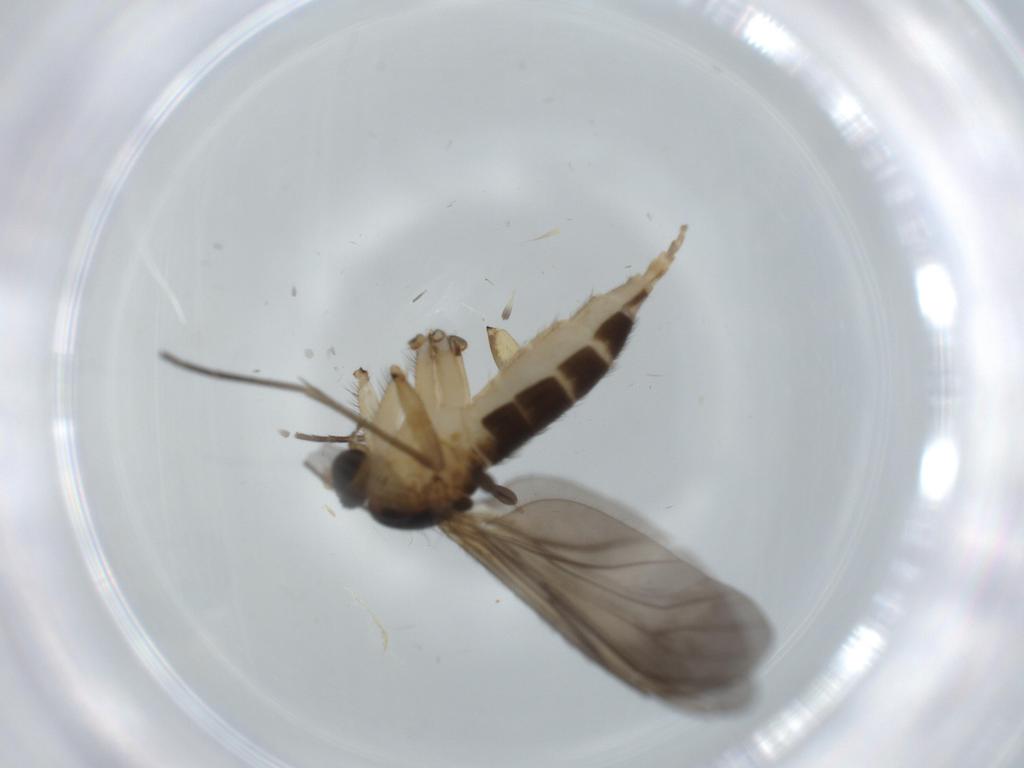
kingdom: Animalia
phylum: Arthropoda
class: Insecta
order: Diptera
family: Mycetophilidae
